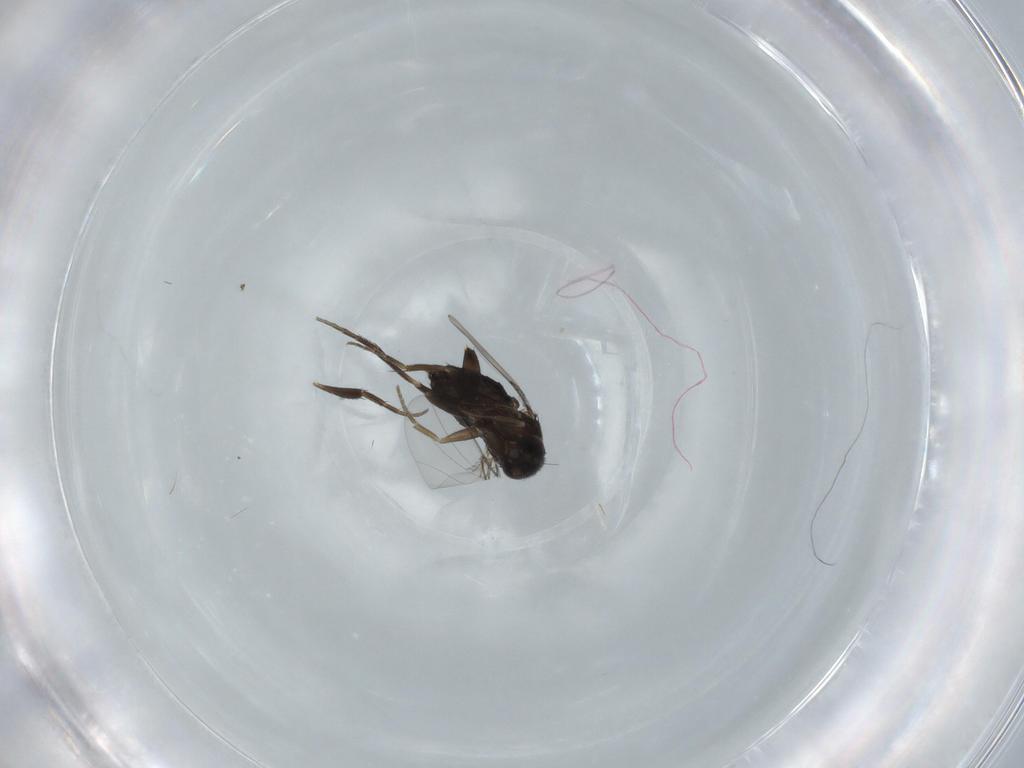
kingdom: Animalia
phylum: Arthropoda
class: Insecta
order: Diptera
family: Phoridae
